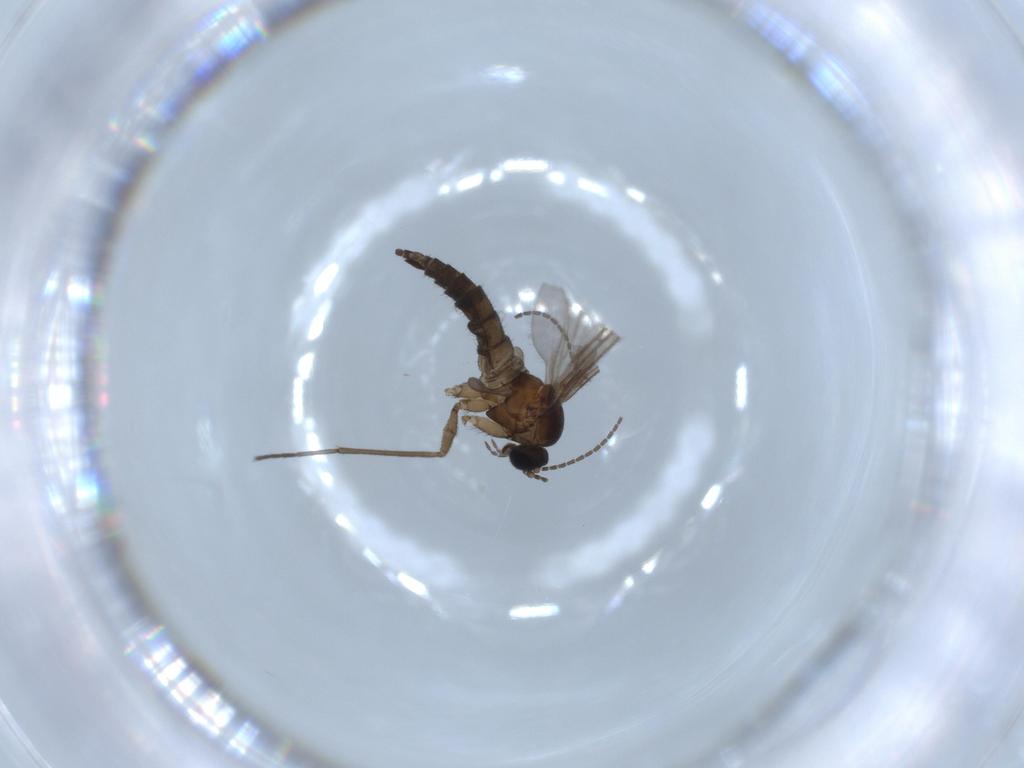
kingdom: Animalia
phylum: Arthropoda
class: Insecta
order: Diptera
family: Sciaridae
